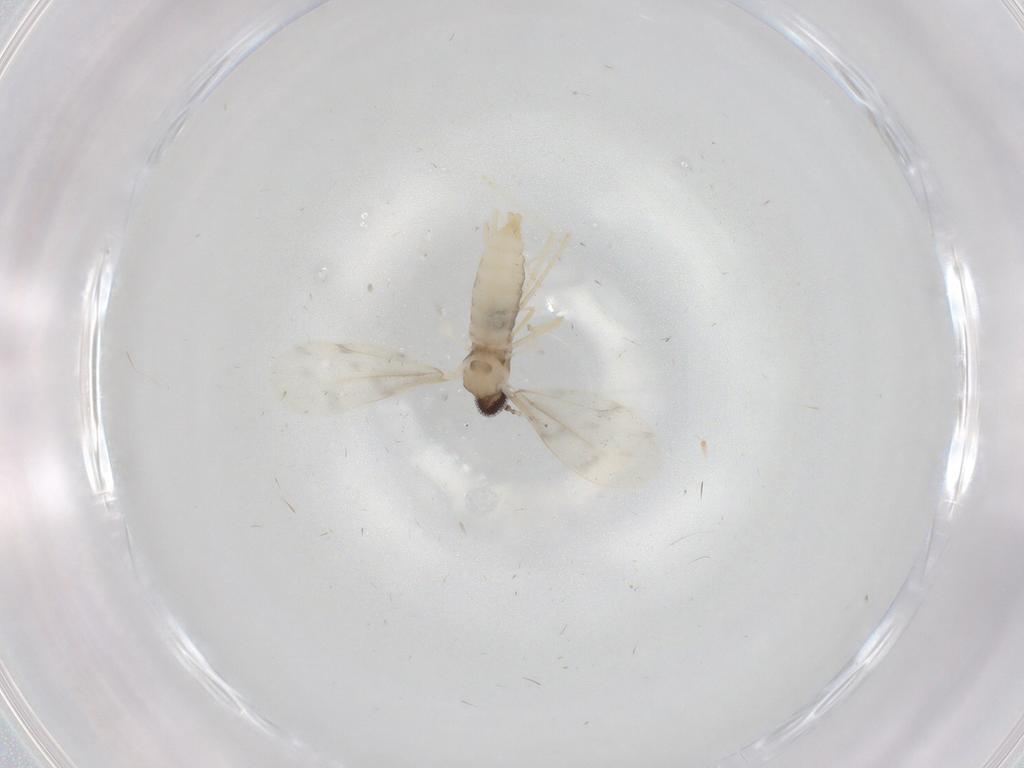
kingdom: Animalia
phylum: Arthropoda
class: Insecta
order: Diptera
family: Cecidomyiidae
